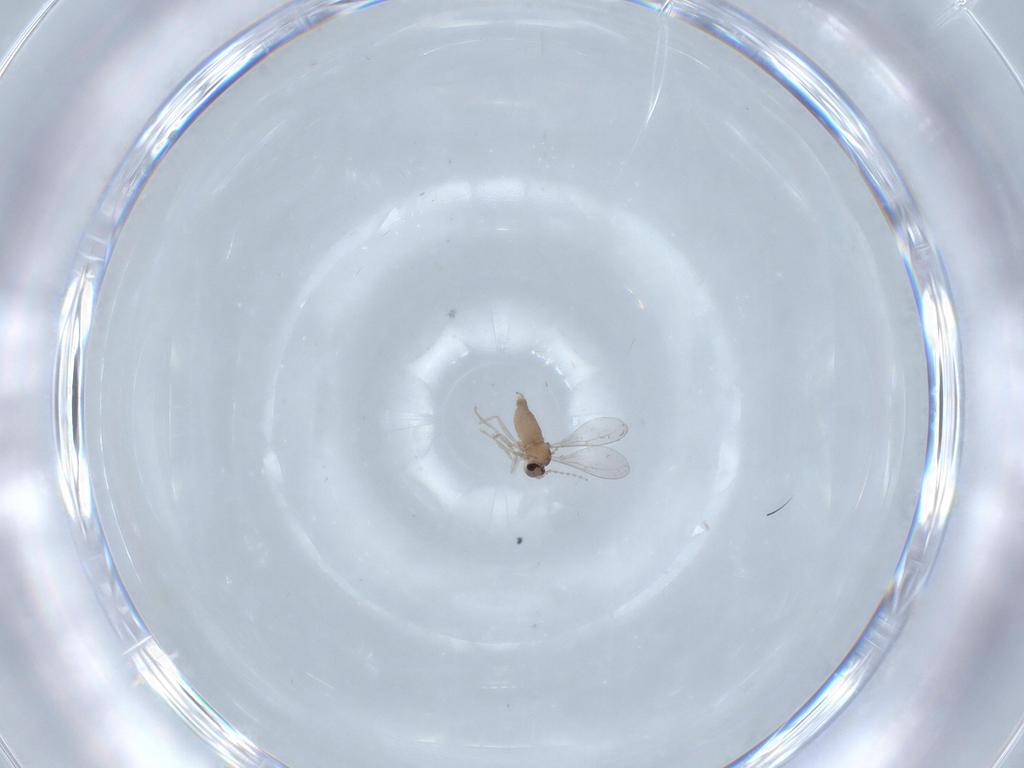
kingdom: Animalia
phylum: Arthropoda
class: Insecta
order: Diptera
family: Cecidomyiidae
